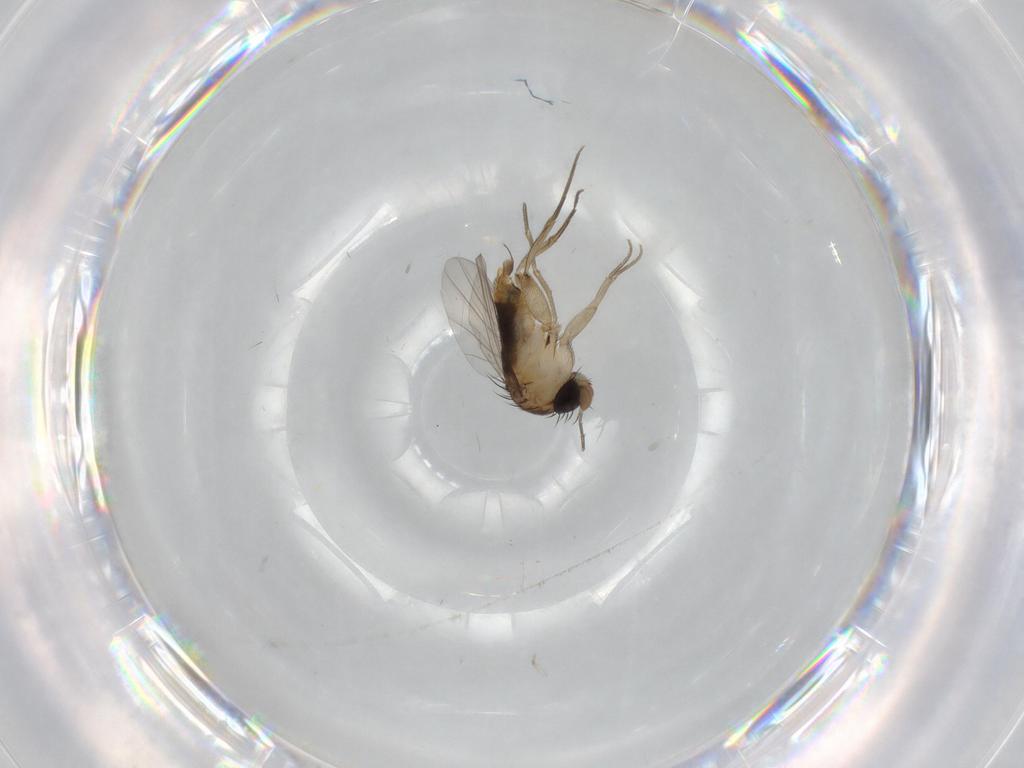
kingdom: Animalia
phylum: Arthropoda
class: Insecta
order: Diptera
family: Phoridae
